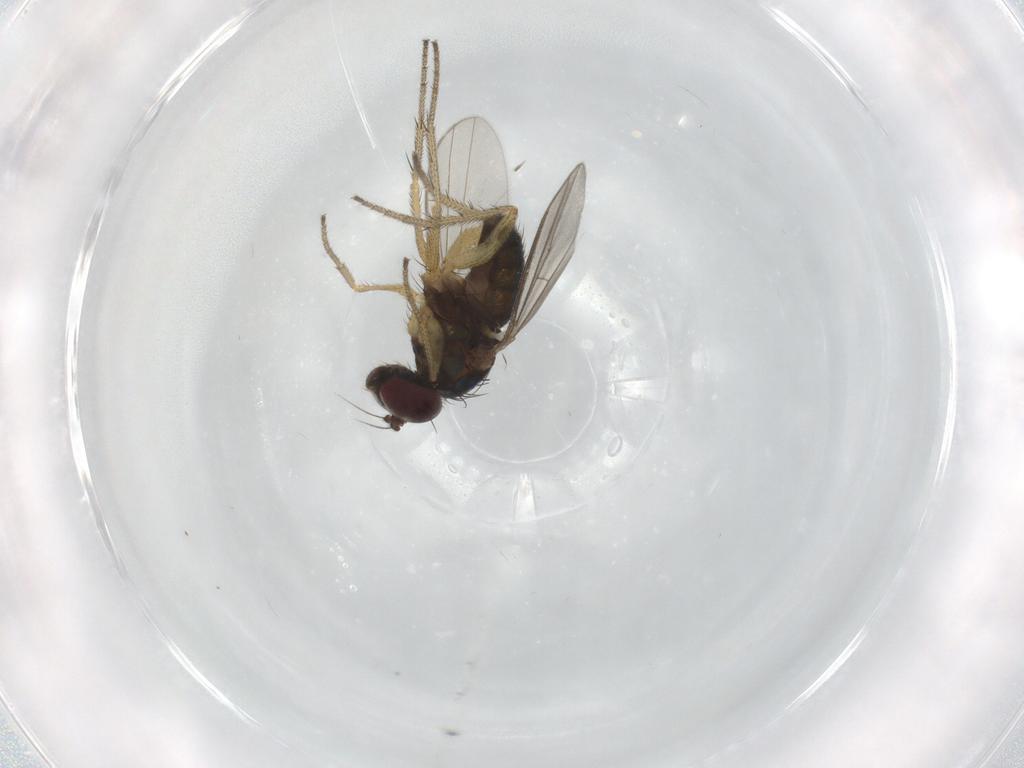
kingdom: Animalia
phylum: Arthropoda
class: Insecta
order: Diptera
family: Dolichopodidae
